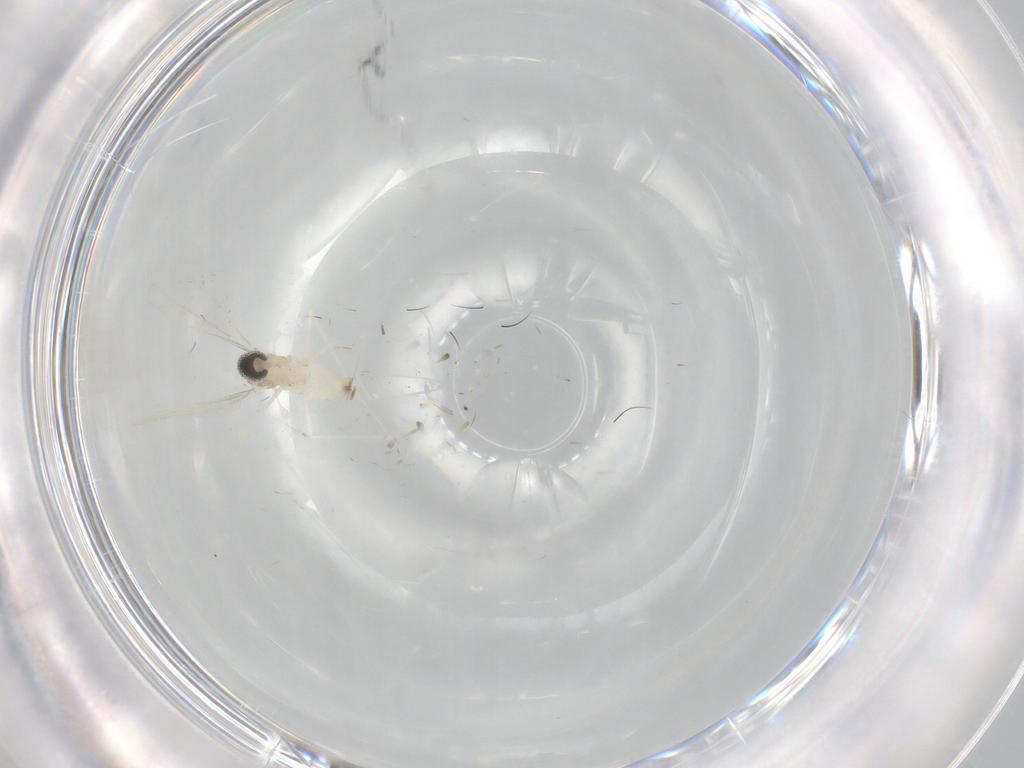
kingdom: Animalia
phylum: Arthropoda
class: Insecta
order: Diptera
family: Cecidomyiidae
